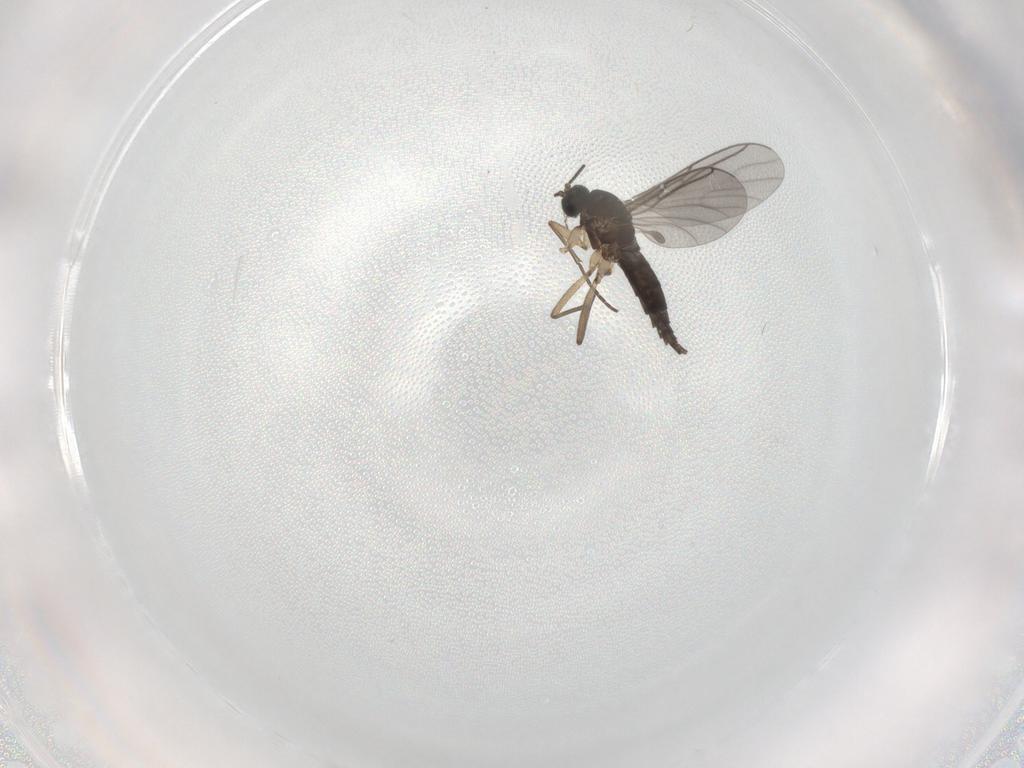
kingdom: Animalia
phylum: Arthropoda
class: Insecta
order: Diptera
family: Sciaridae
